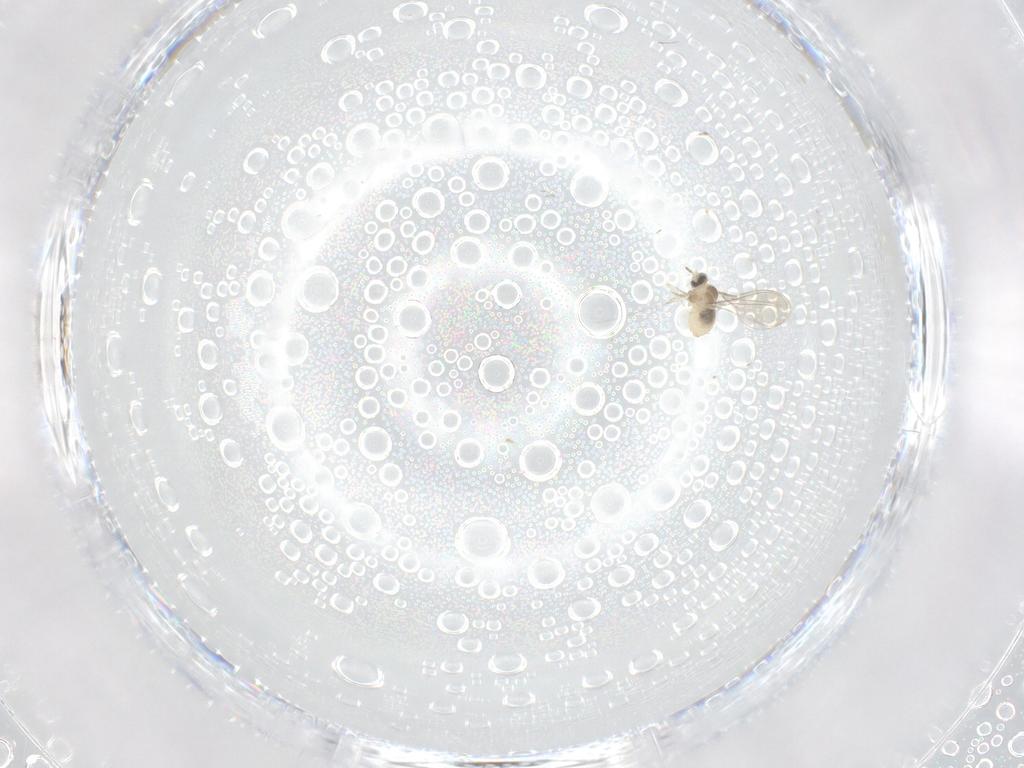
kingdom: Animalia
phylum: Arthropoda
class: Insecta
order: Diptera
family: Cecidomyiidae
